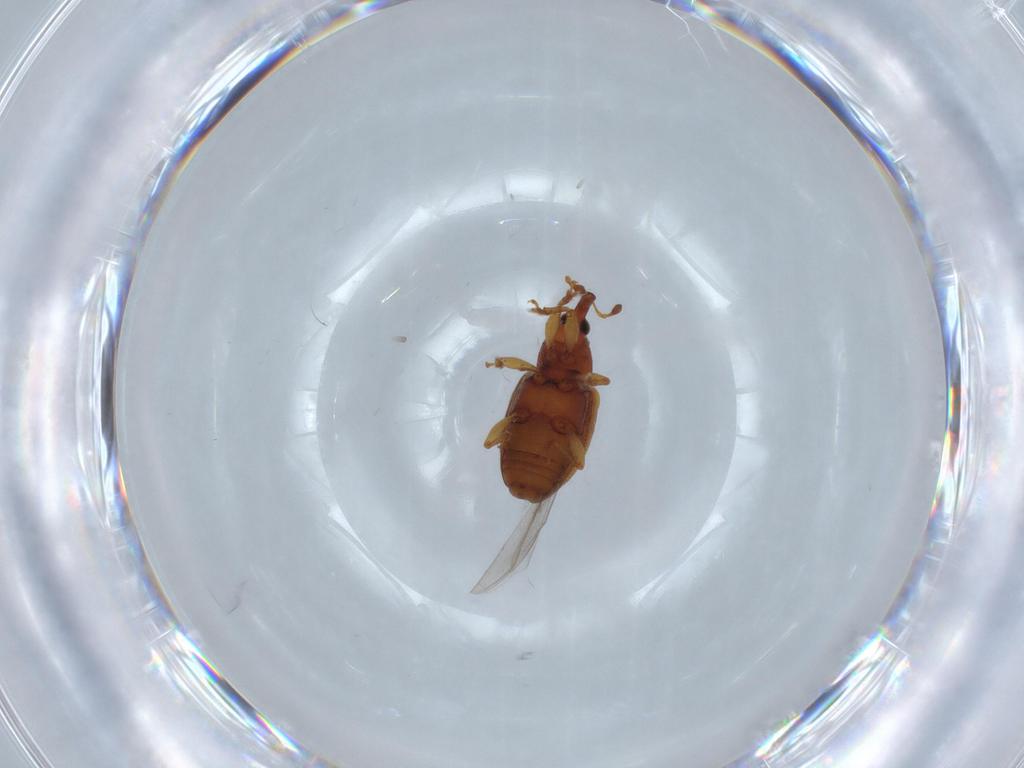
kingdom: Animalia
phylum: Arthropoda
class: Insecta
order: Coleoptera
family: Curculionidae
